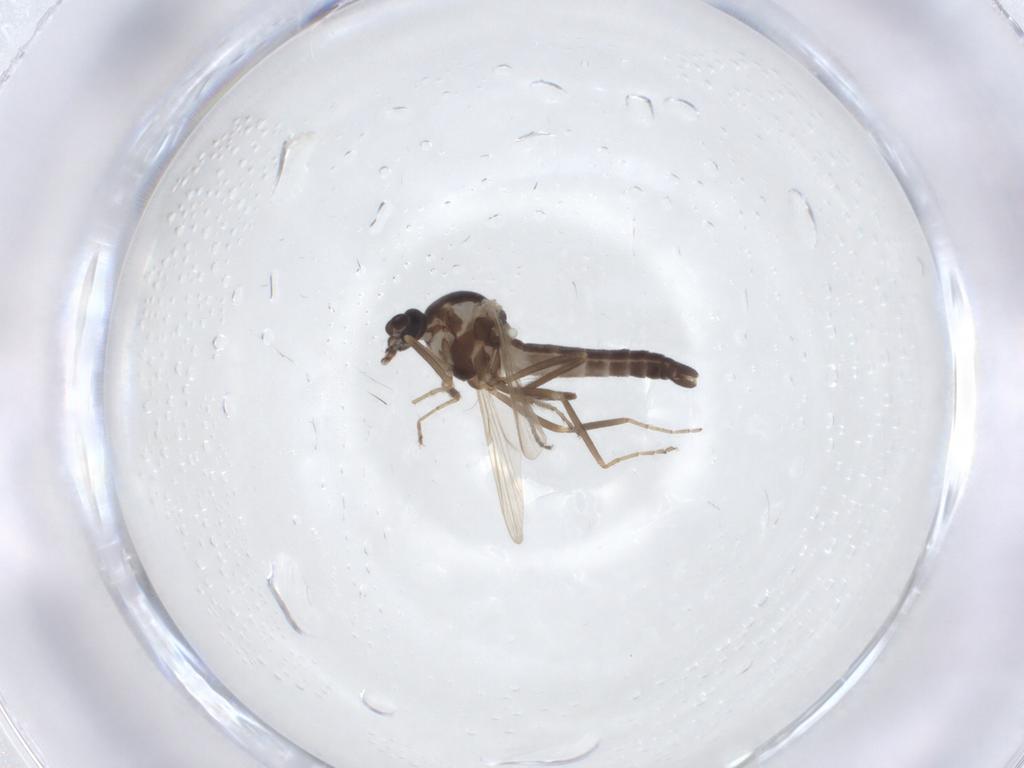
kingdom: Animalia
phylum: Arthropoda
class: Insecta
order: Diptera
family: Ceratopogonidae
